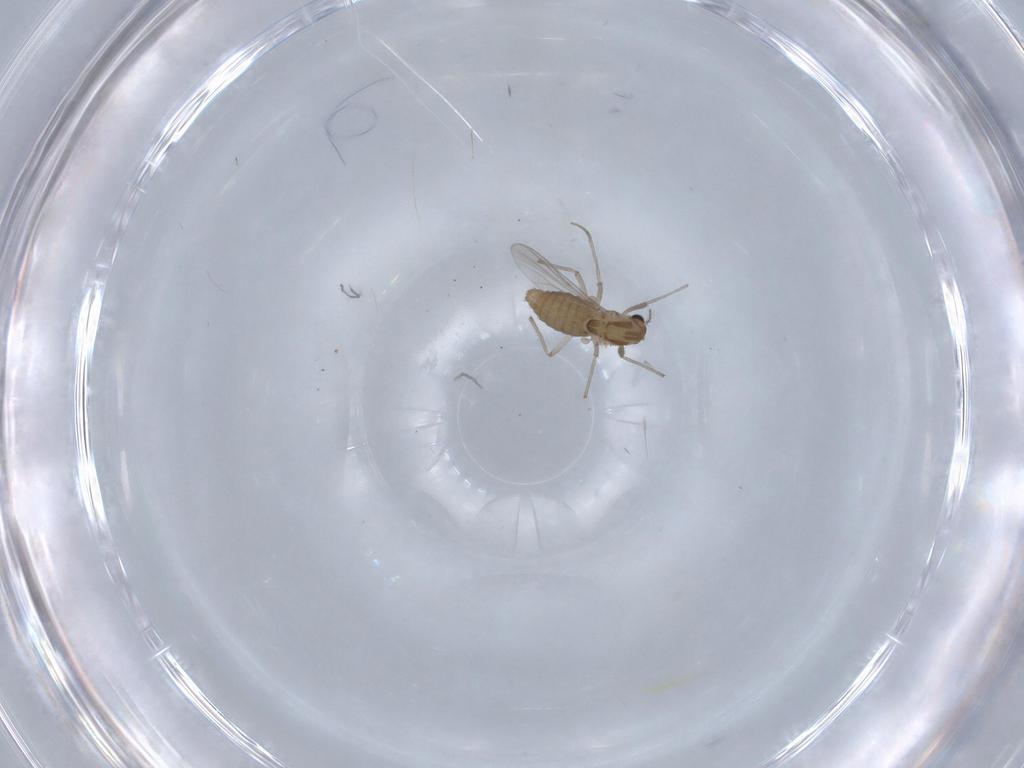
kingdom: Animalia
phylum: Arthropoda
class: Insecta
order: Diptera
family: Chironomidae
